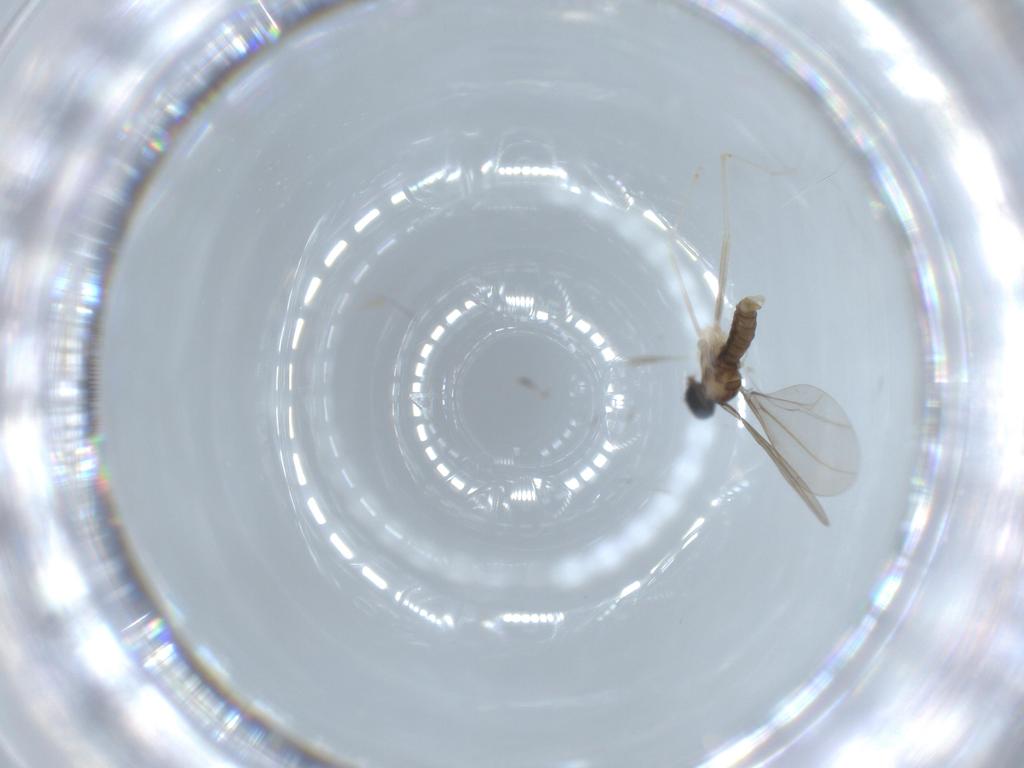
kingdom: Animalia
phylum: Arthropoda
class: Insecta
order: Diptera
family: Cecidomyiidae
